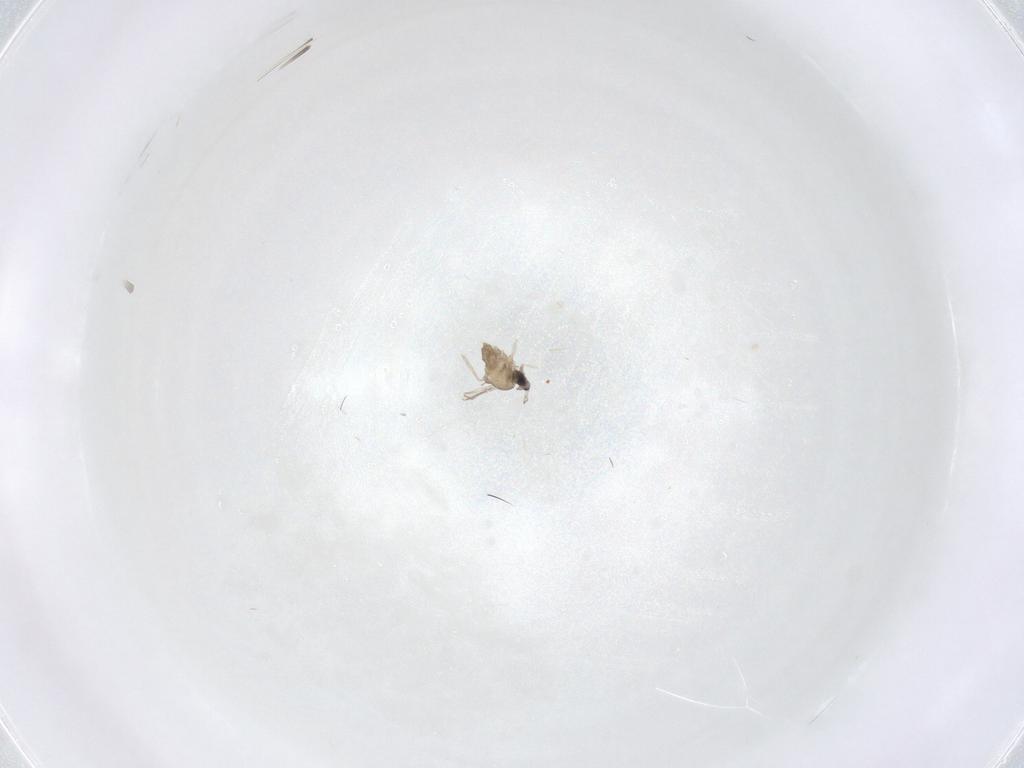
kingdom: Animalia
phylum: Arthropoda
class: Insecta
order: Diptera
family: Cecidomyiidae
